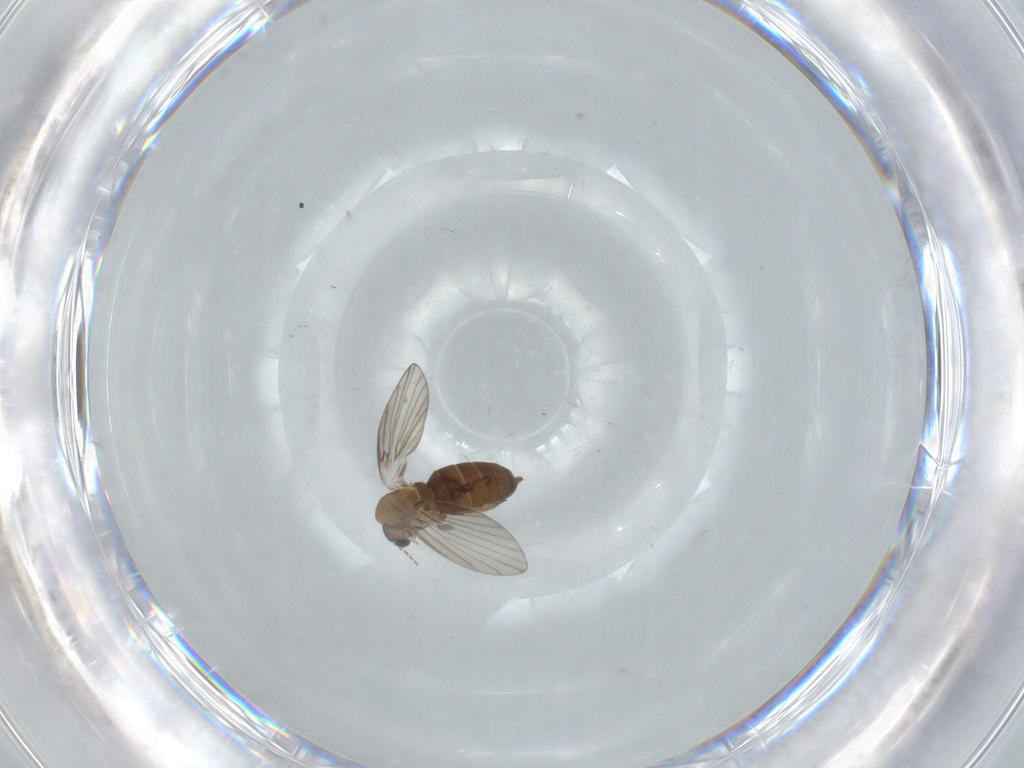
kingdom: Animalia
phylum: Arthropoda
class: Insecta
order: Diptera
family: Psychodidae
